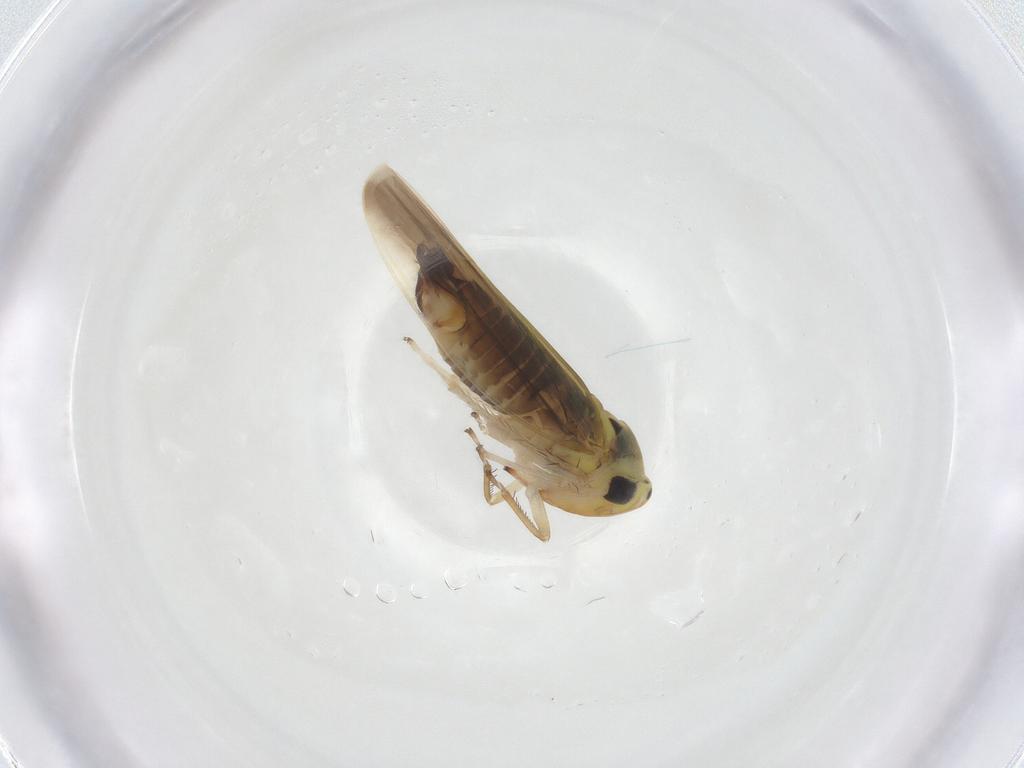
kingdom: Animalia
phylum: Arthropoda
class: Insecta
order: Hemiptera
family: Cicadellidae
